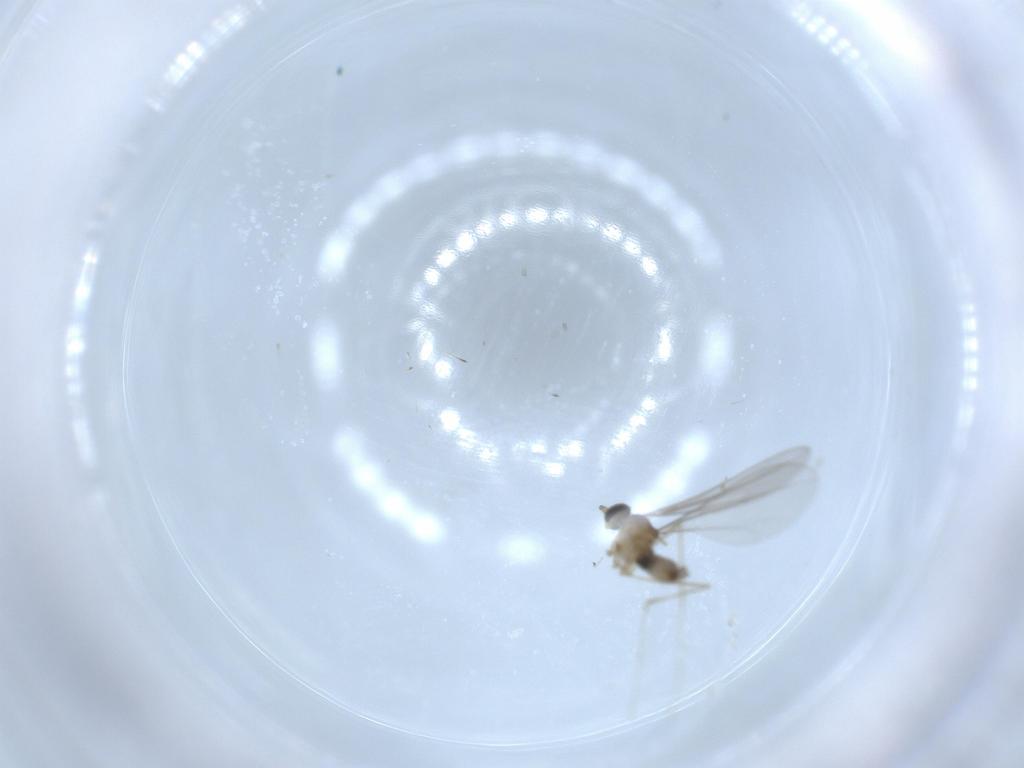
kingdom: Animalia
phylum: Arthropoda
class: Insecta
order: Diptera
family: Cecidomyiidae
